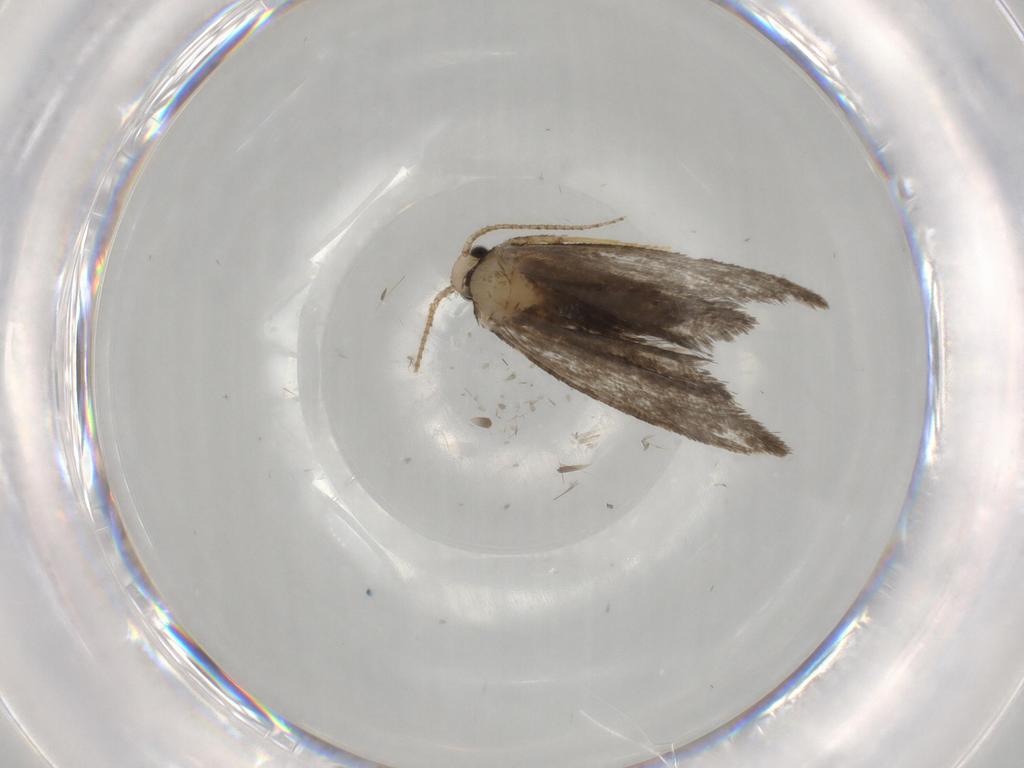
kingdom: Animalia
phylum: Arthropoda
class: Insecta
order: Lepidoptera
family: Psychidae
